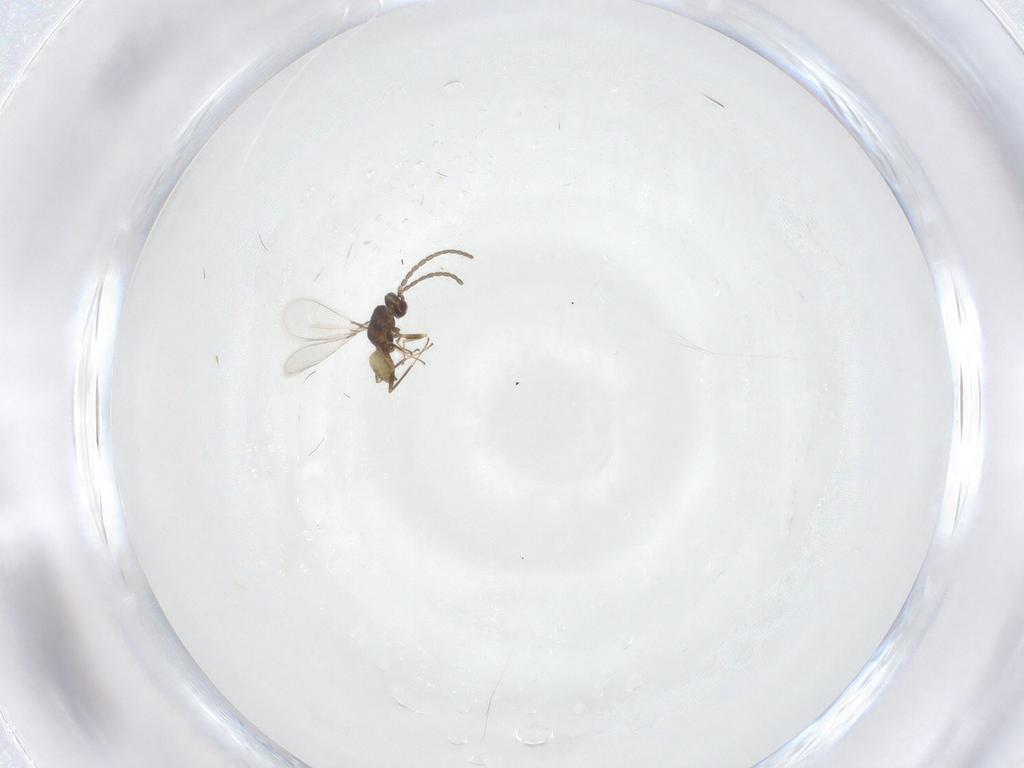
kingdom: Animalia
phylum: Arthropoda
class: Insecta
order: Hymenoptera
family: Mymaridae
